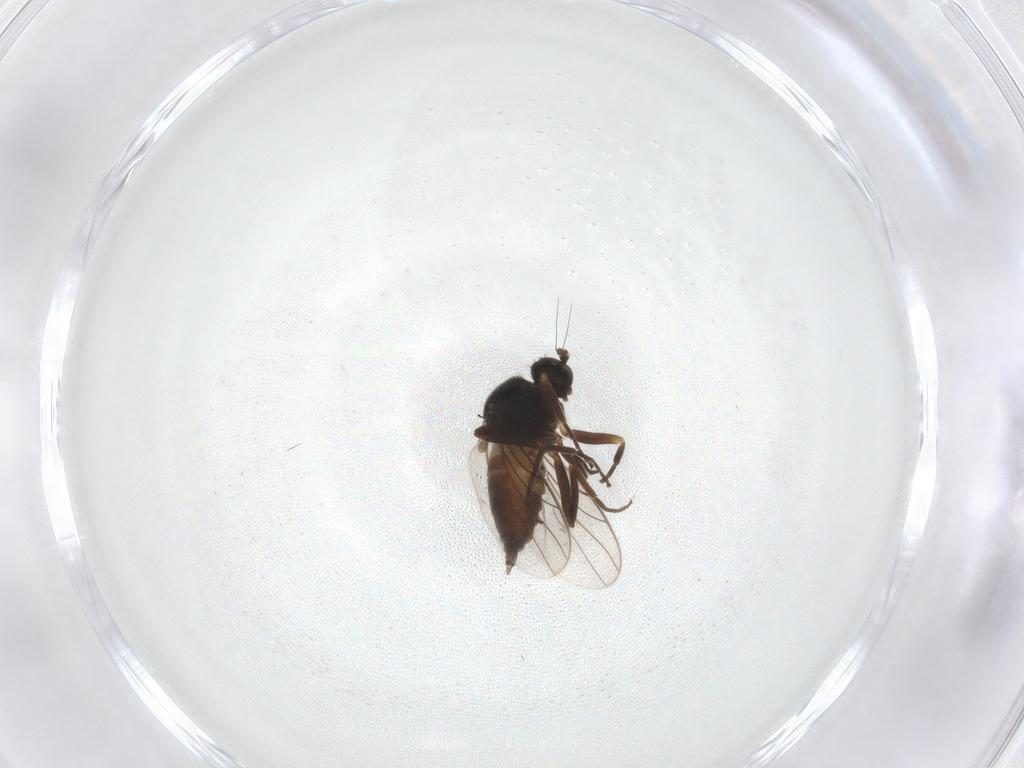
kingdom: Animalia
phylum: Arthropoda
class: Insecta
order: Diptera
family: Hybotidae
